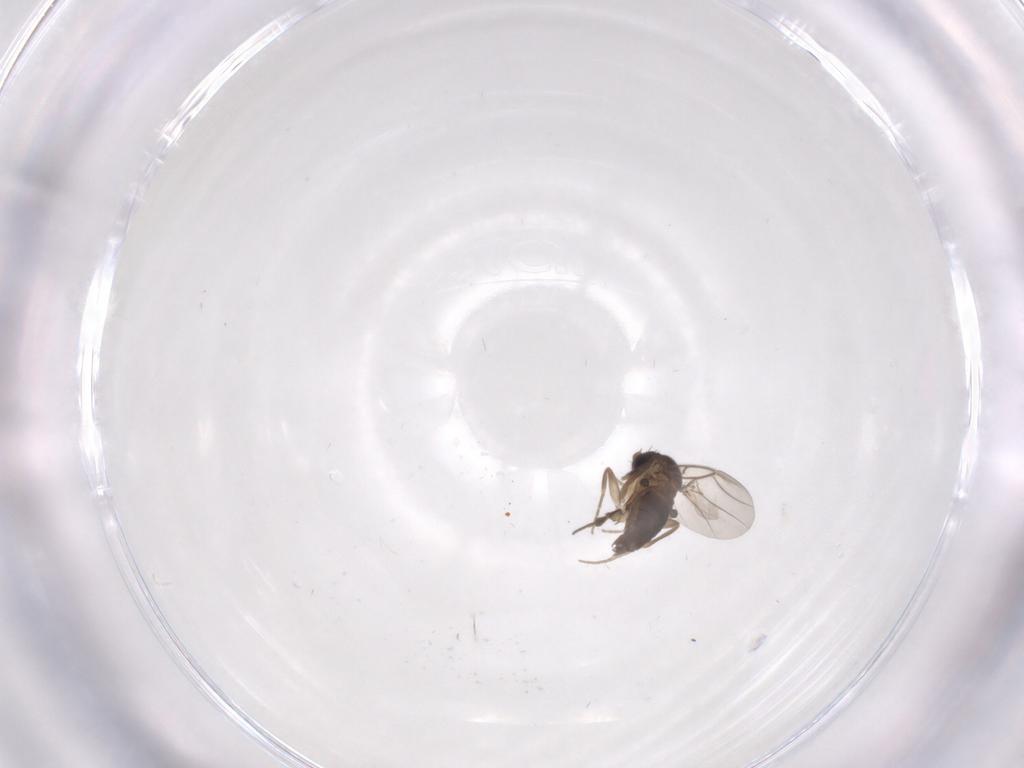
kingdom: Animalia
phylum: Arthropoda
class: Insecta
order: Diptera
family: Phoridae
